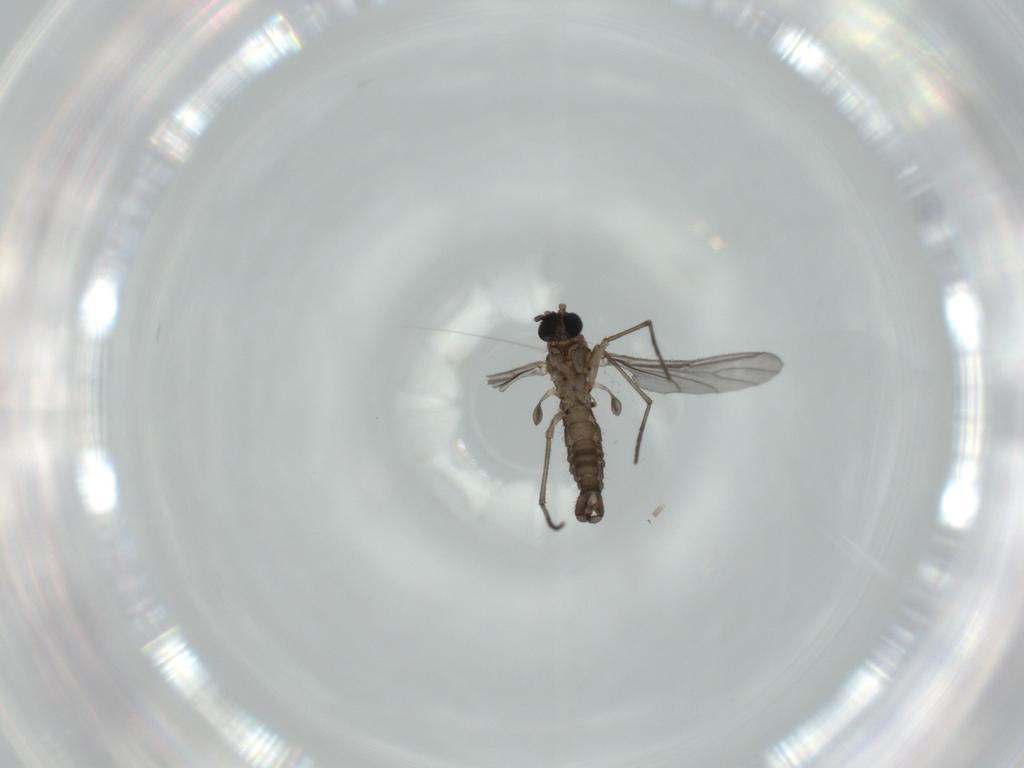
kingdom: Animalia
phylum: Arthropoda
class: Insecta
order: Diptera
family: Sciaridae
